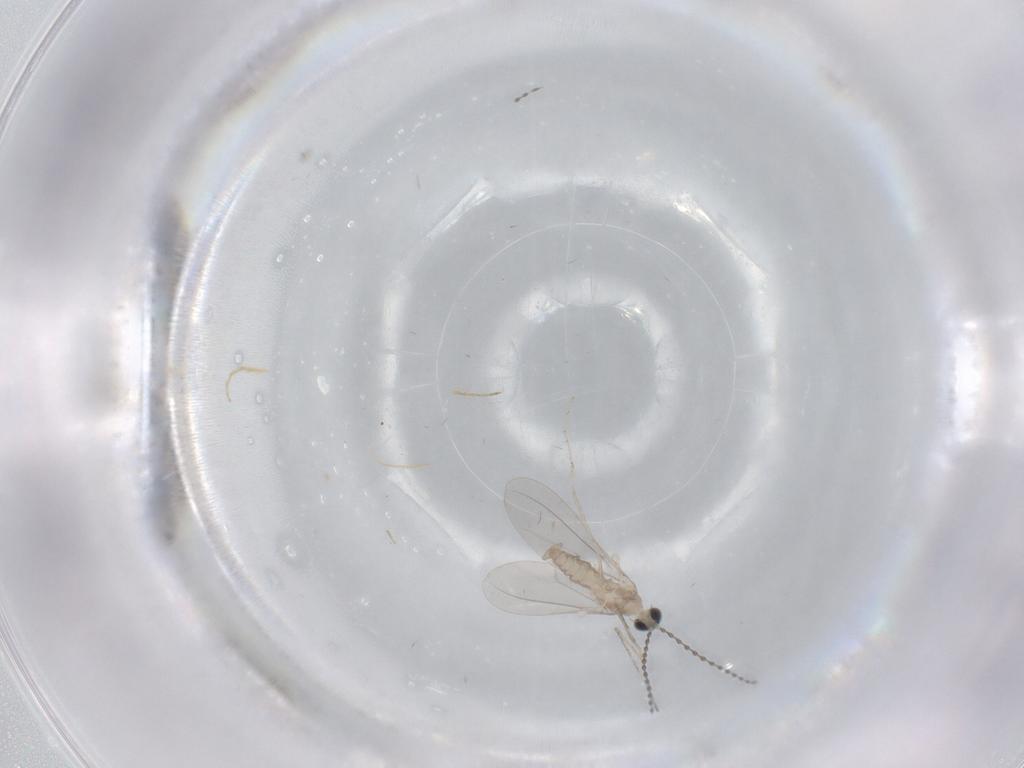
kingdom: Animalia
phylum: Arthropoda
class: Insecta
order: Diptera
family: Cecidomyiidae
